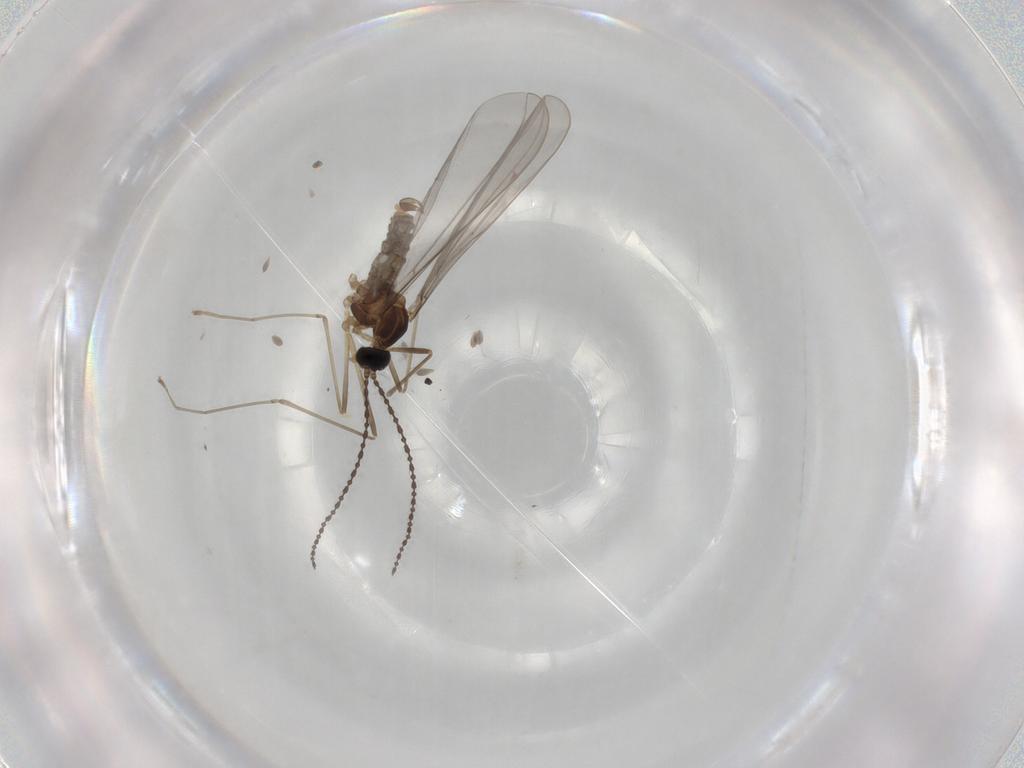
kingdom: Animalia
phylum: Arthropoda
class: Insecta
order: Diptera
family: Cecidomyiidae
